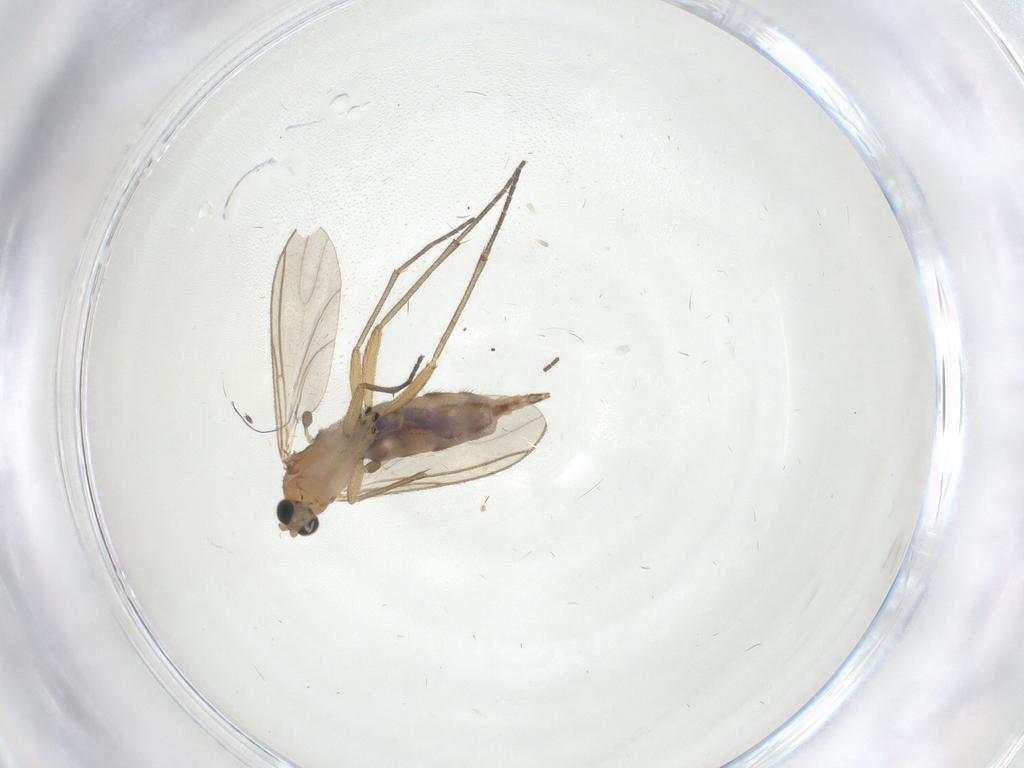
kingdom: Animalia
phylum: Arthropoda
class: Insecta
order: Diptera
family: Sciaridae
